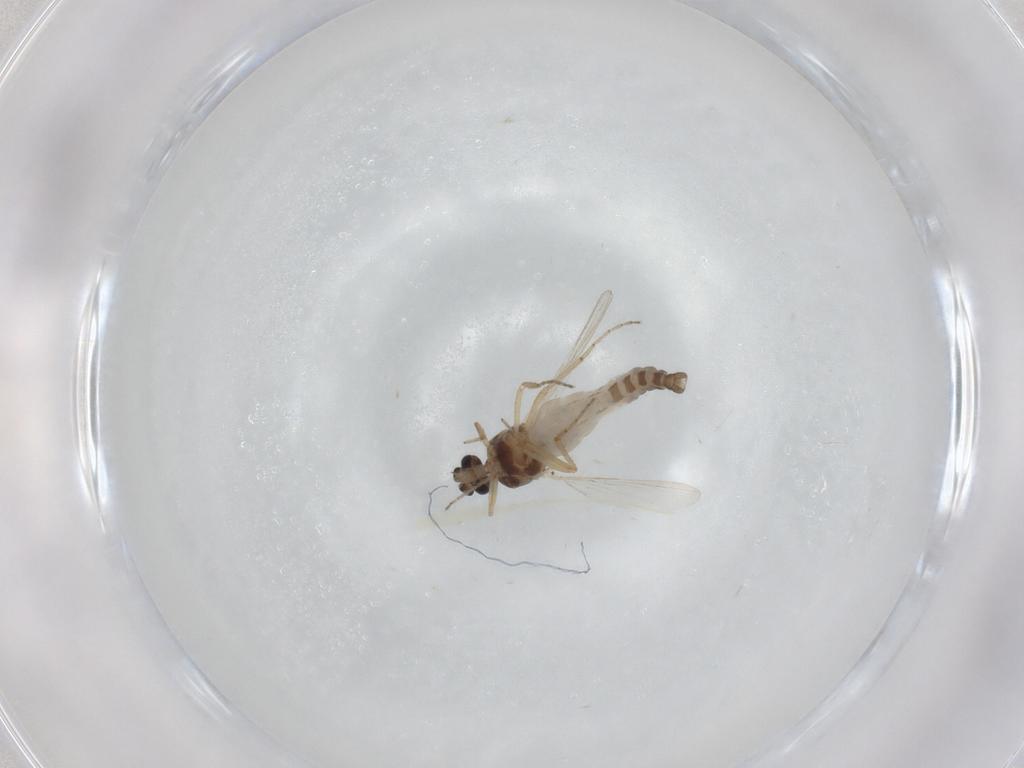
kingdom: Animalia
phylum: Arthropoda
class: Insecta
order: Diptera
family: Ceratopogonidae
